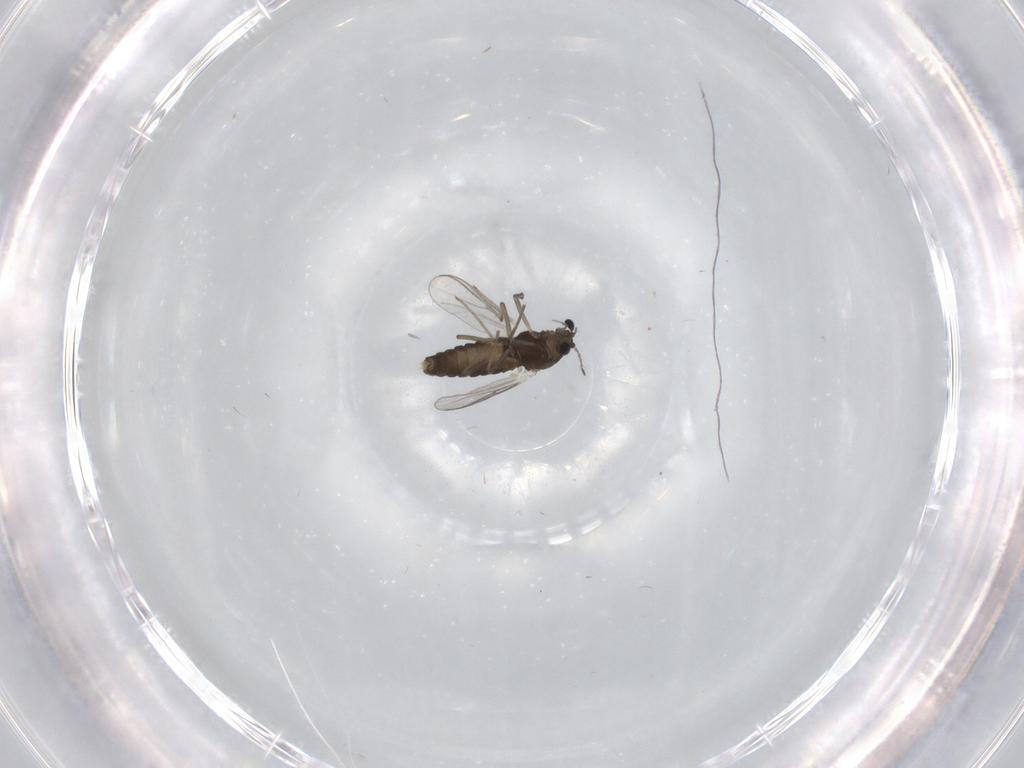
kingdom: Animalia
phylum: Arthropoda
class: Insecta
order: Diptera
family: Chironomidae
